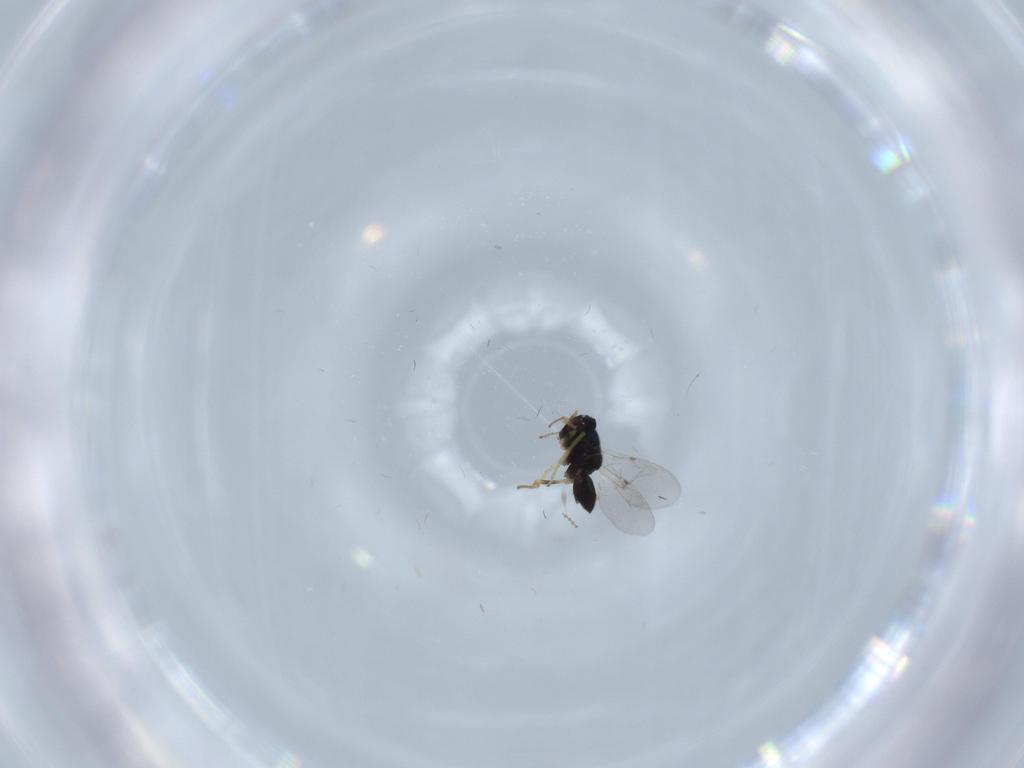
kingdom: Animalia
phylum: Arthropoda
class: Insecta
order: Hymenoptera
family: Encyrtidae
